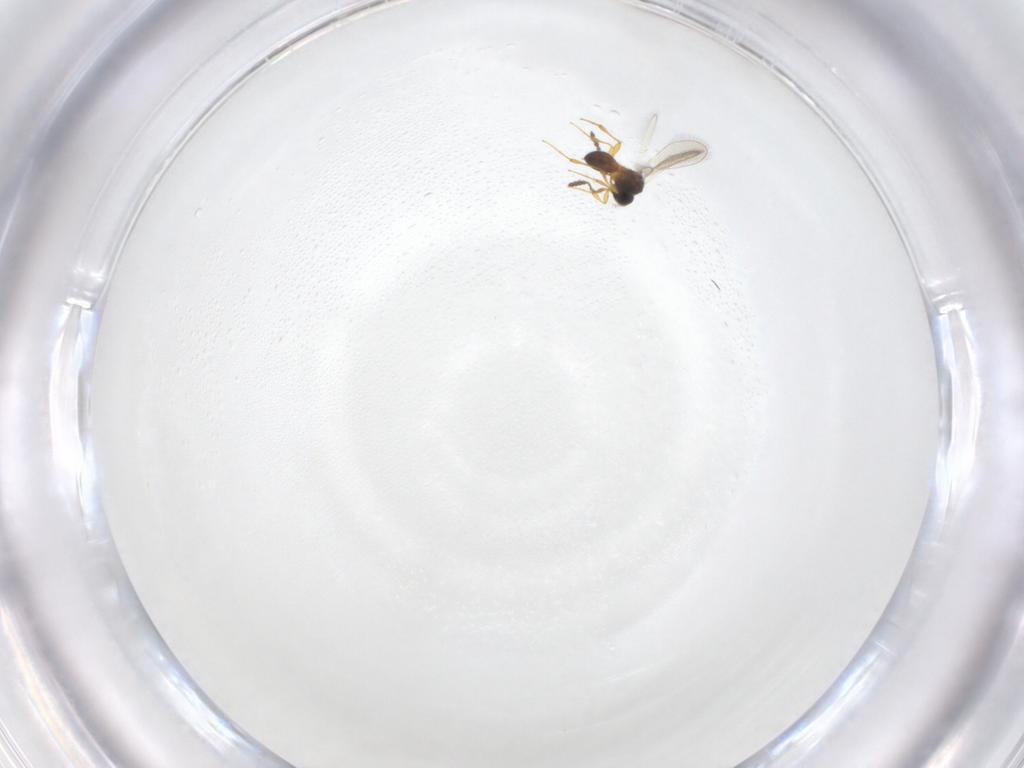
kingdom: Animalia
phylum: Arthropoda
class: Insecta
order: Hymenoptera
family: Platygastridae
